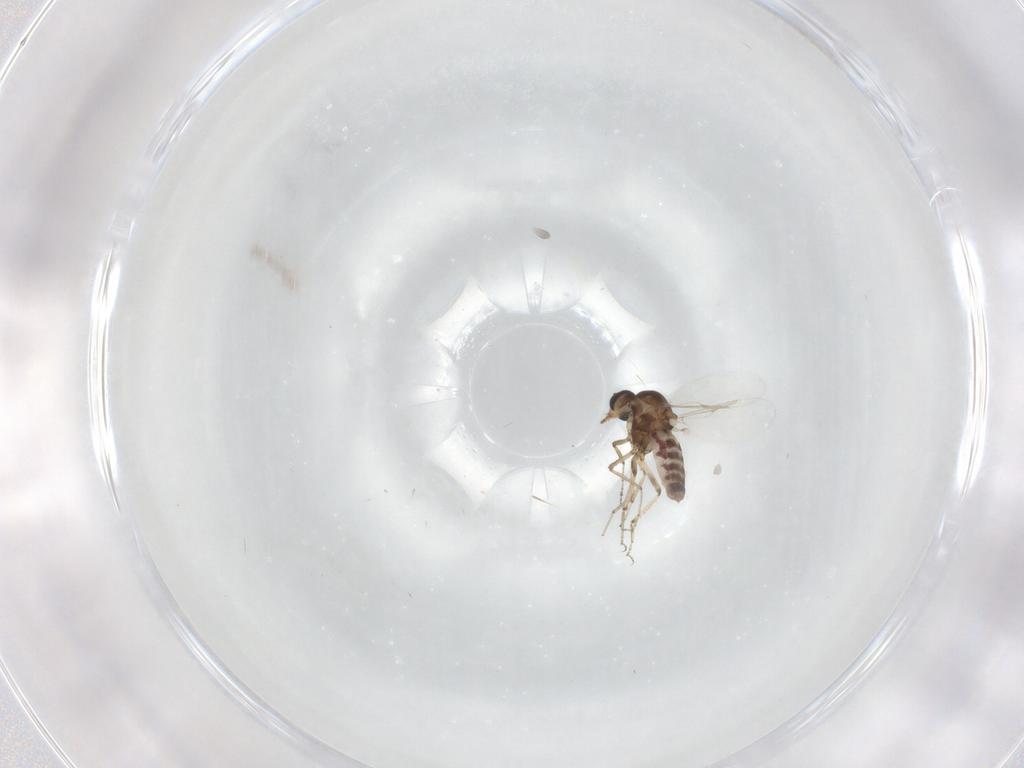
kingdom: Animalia
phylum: Arthropoda
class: Insecta
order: Diptera
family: Ceratopogonidae
